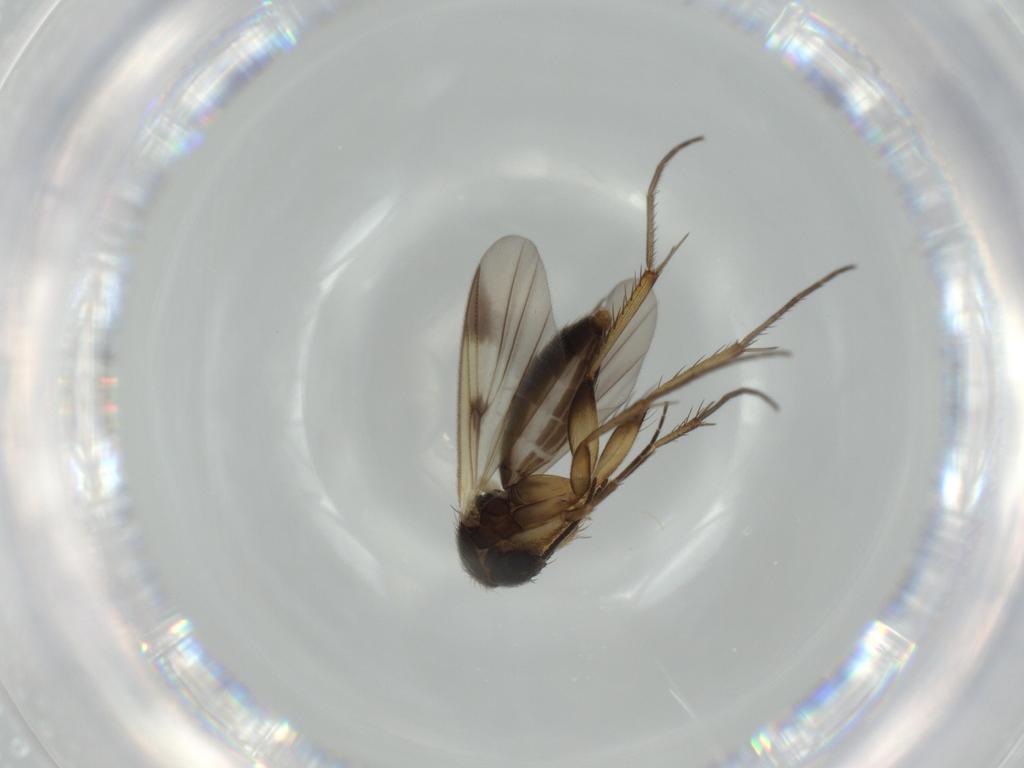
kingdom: Animalia
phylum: Arthropoda
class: Insecta
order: Diptera
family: Mycetophilidae
